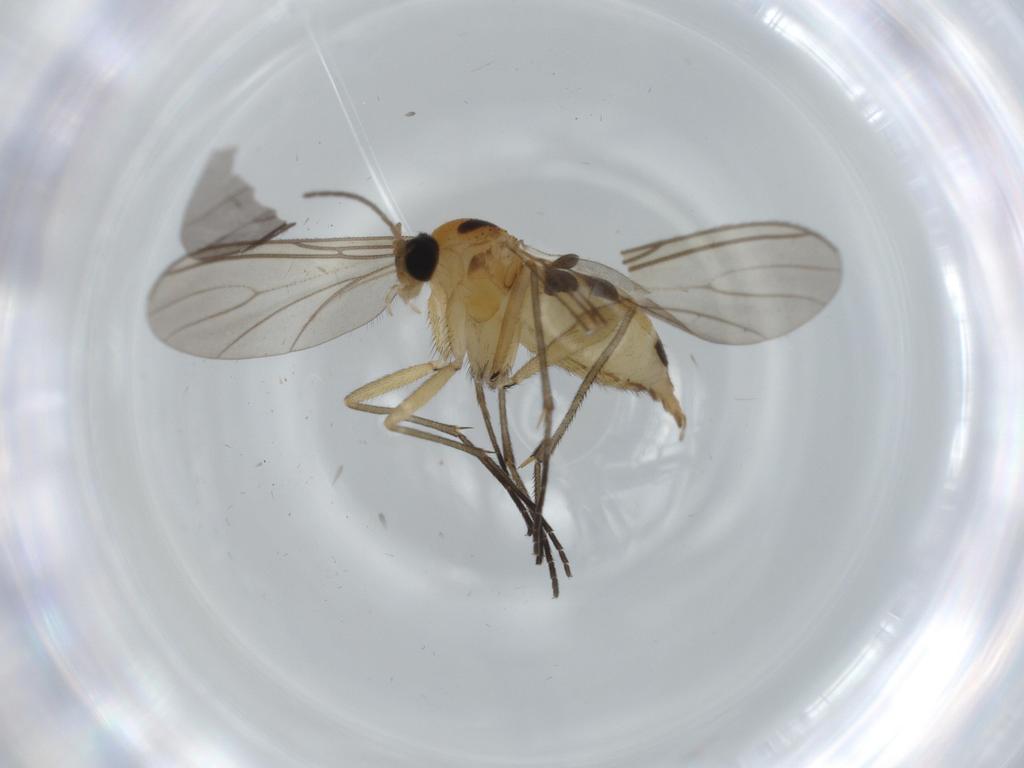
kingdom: Animalia
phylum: Arthropoda
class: Insecta
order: Diptera
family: Sciaridae
